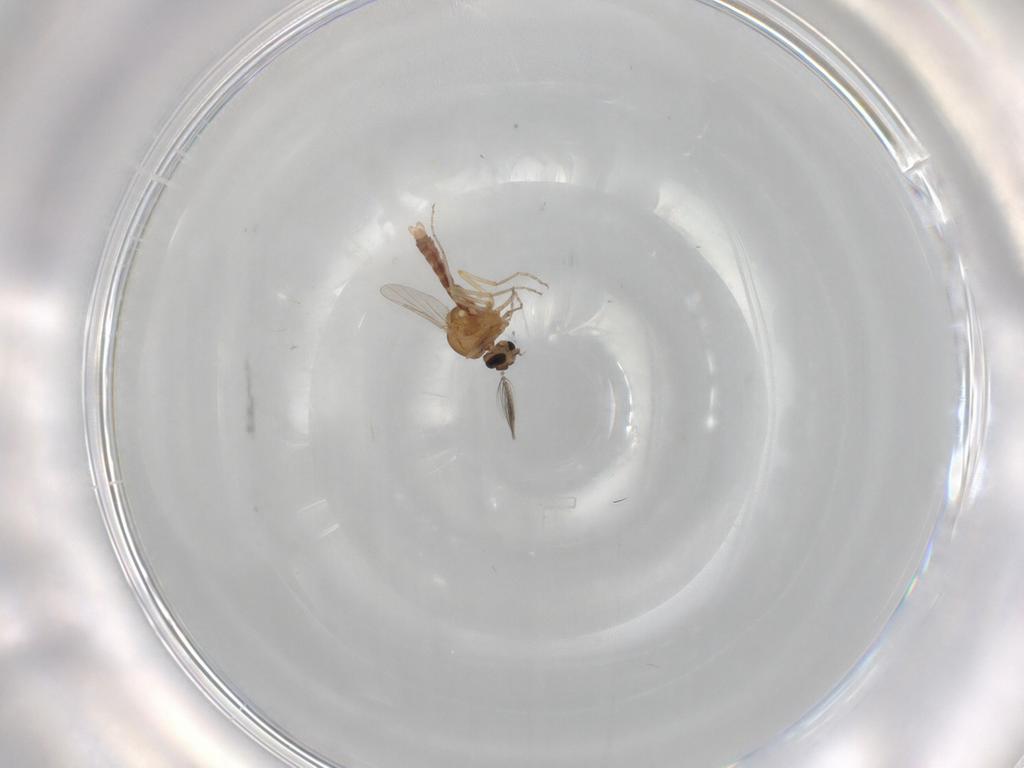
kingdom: Animalia
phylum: Arthropoda
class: Insecta
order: Diptera
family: Ceratopogonidae
